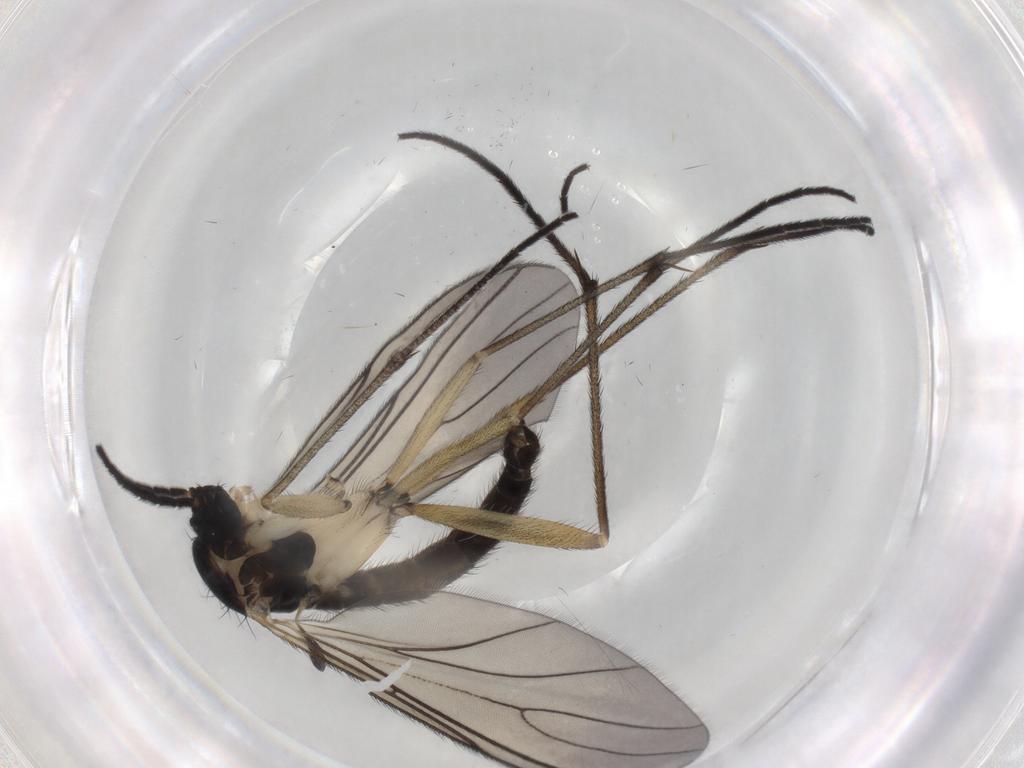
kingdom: Animalia
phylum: Arthropoda
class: Insecta
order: Diptera
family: Sciaridae
